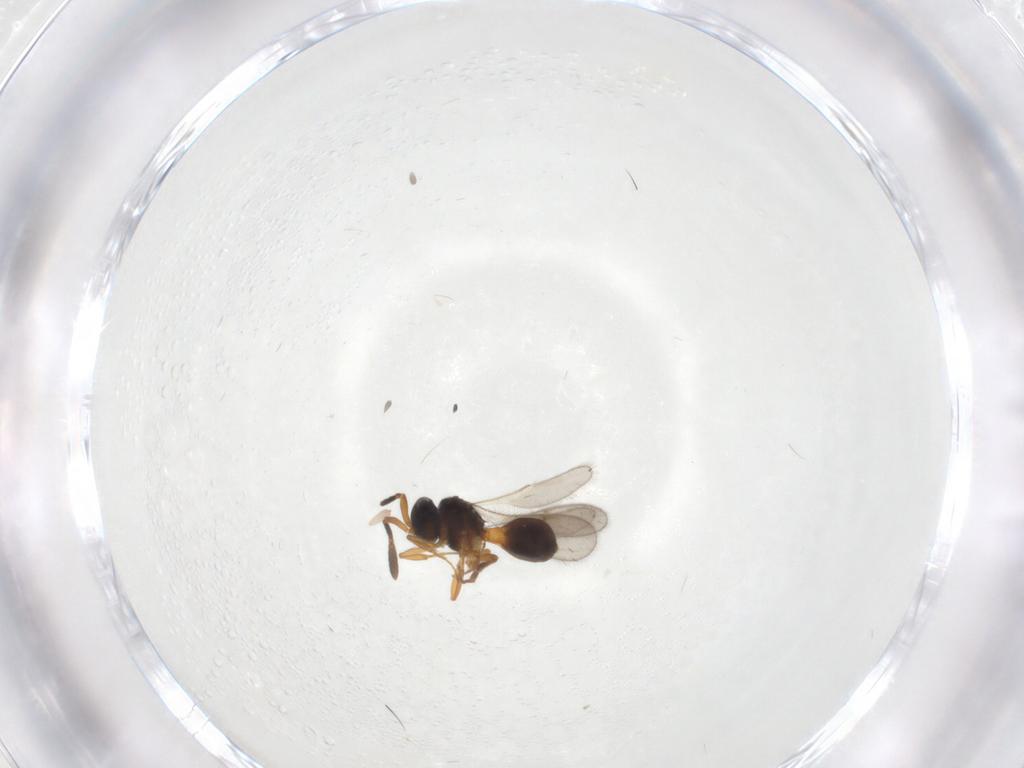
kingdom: Animalia
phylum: Arthropoda
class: Insecta
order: Hymenoptera
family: Scelionidae
